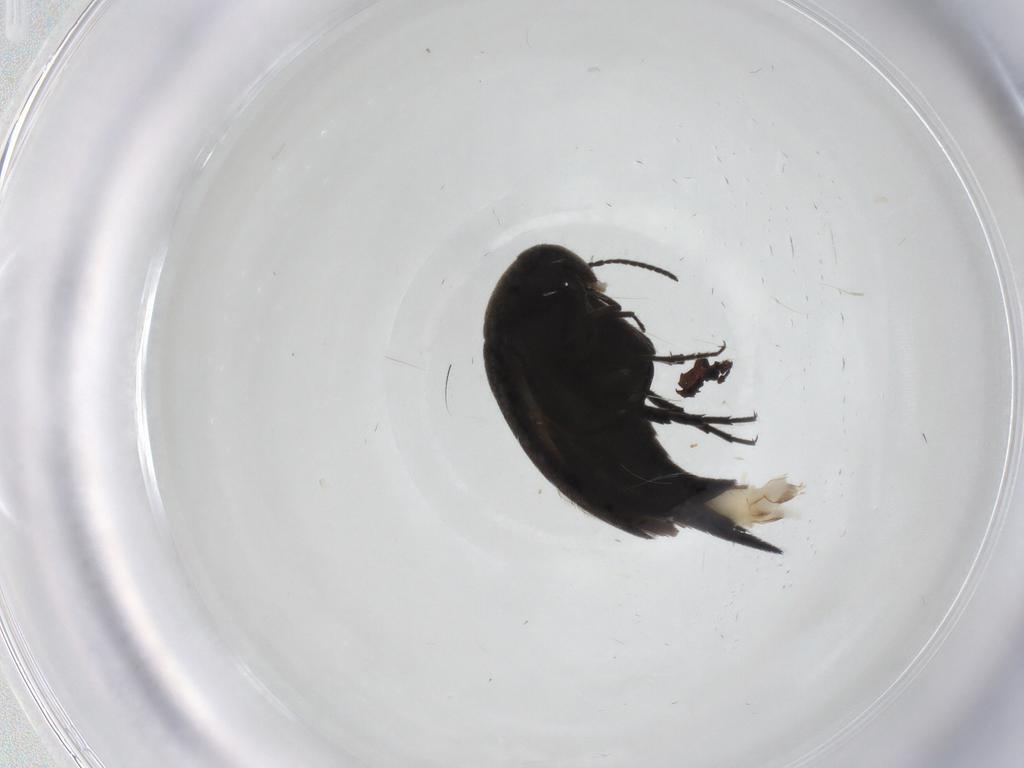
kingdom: Animalia
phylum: Arthropoda
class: Insecta
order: Coleoptera
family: Mordellidae
